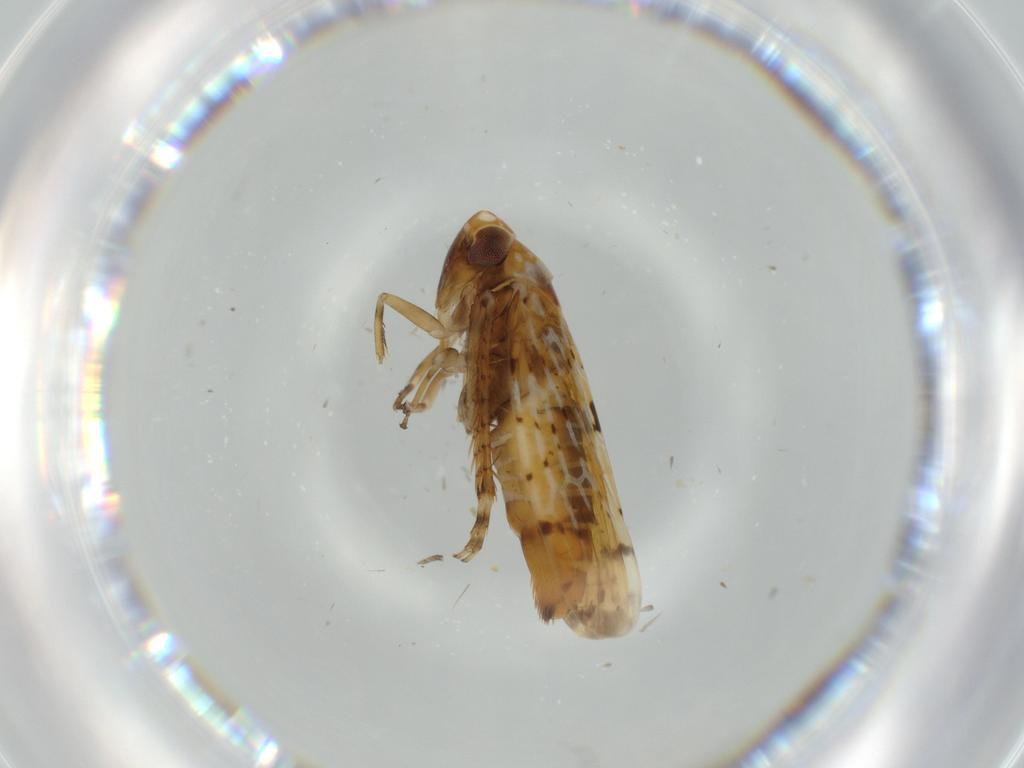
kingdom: Animalia
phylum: Arthropoda
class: Insecta
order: Hemiptera
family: Cicadellidae
